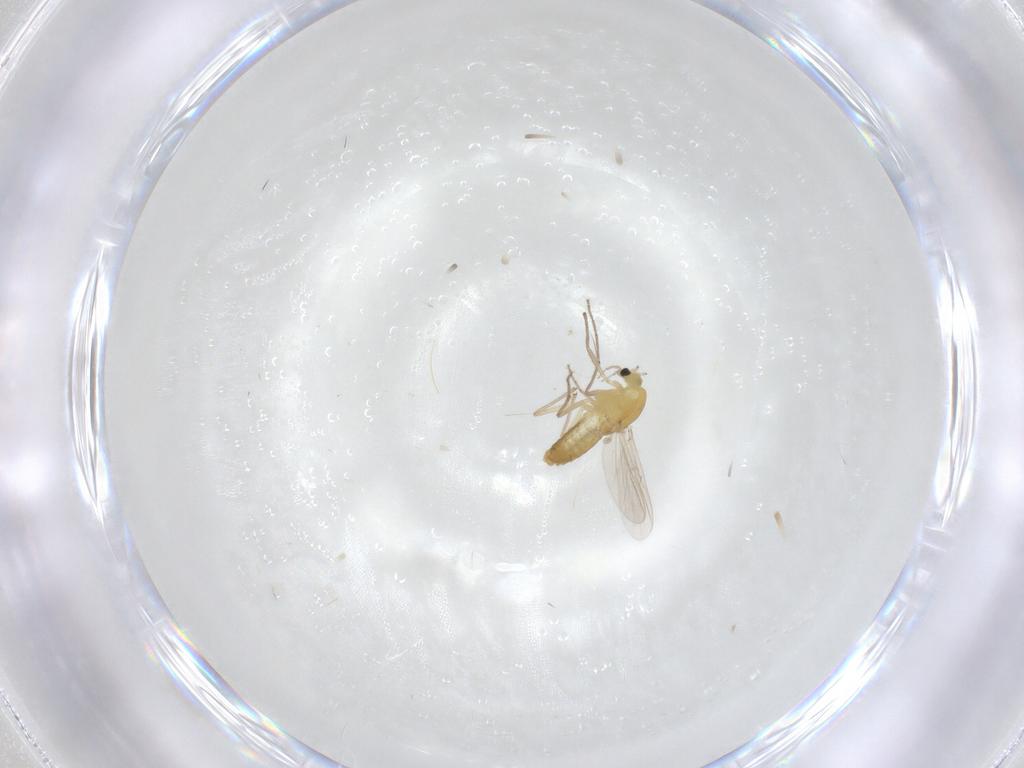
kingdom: Animalia
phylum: Arthropoda
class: Insecta
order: Diptera
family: Chironomidae
